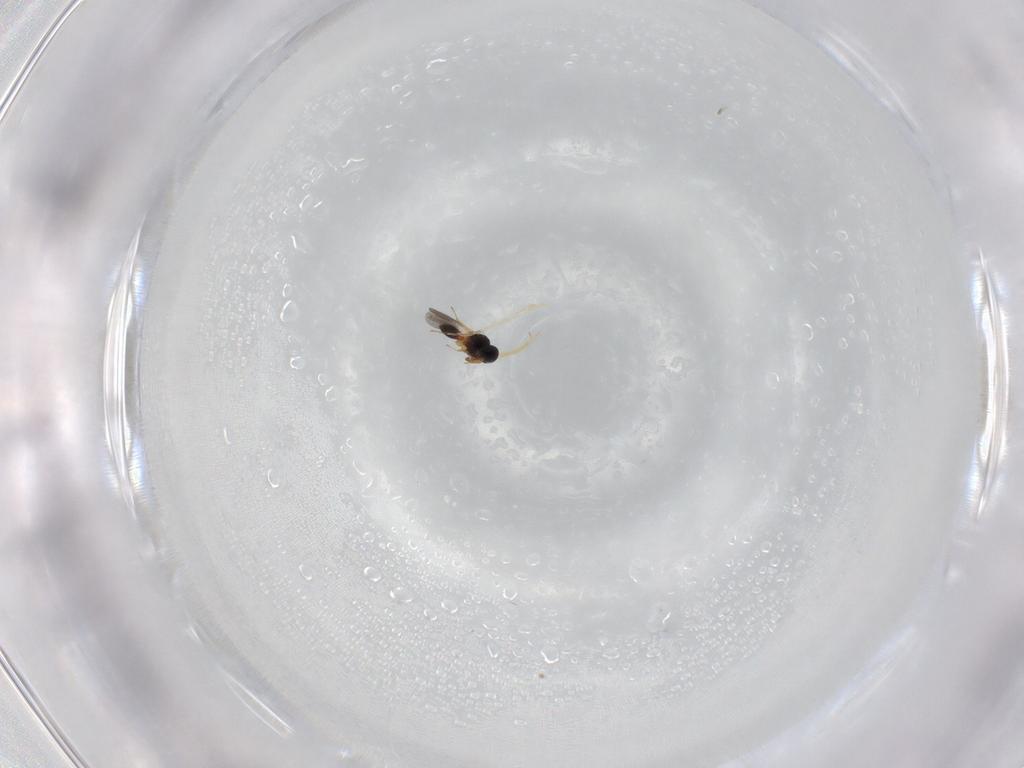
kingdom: Animalia
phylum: Arthropoda
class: Insecta
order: Hymenoptera
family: Platygastridae
